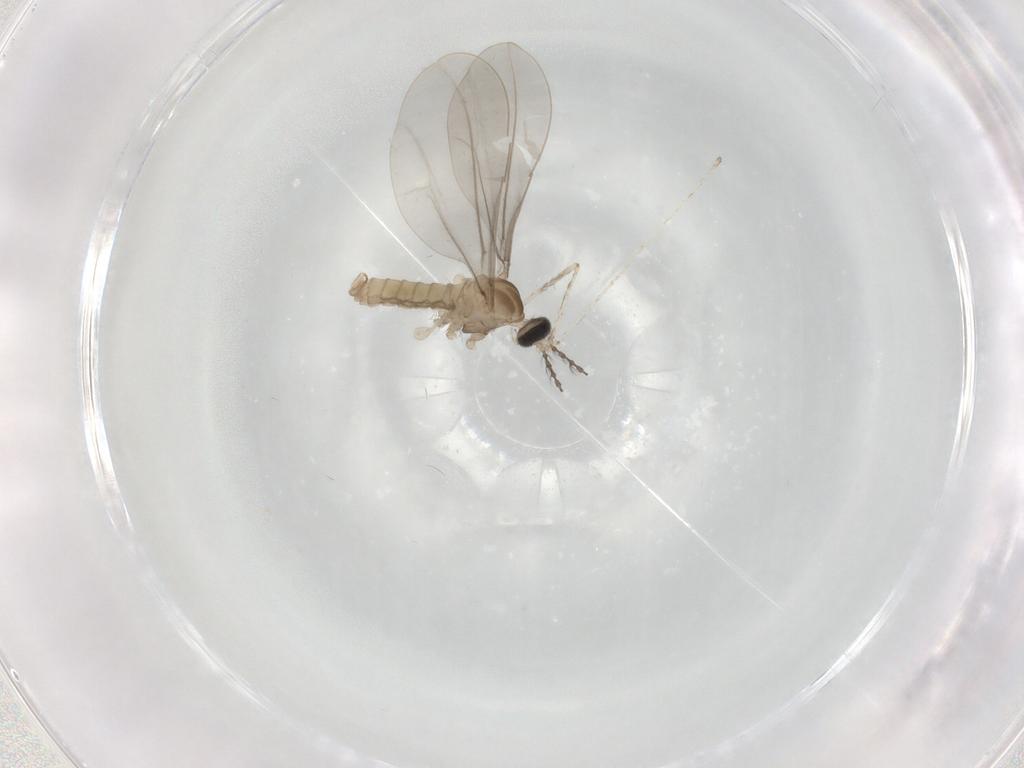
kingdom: Animalia
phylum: Arthropoda
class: Insecta
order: Diptera
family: Cecidomyiidae
